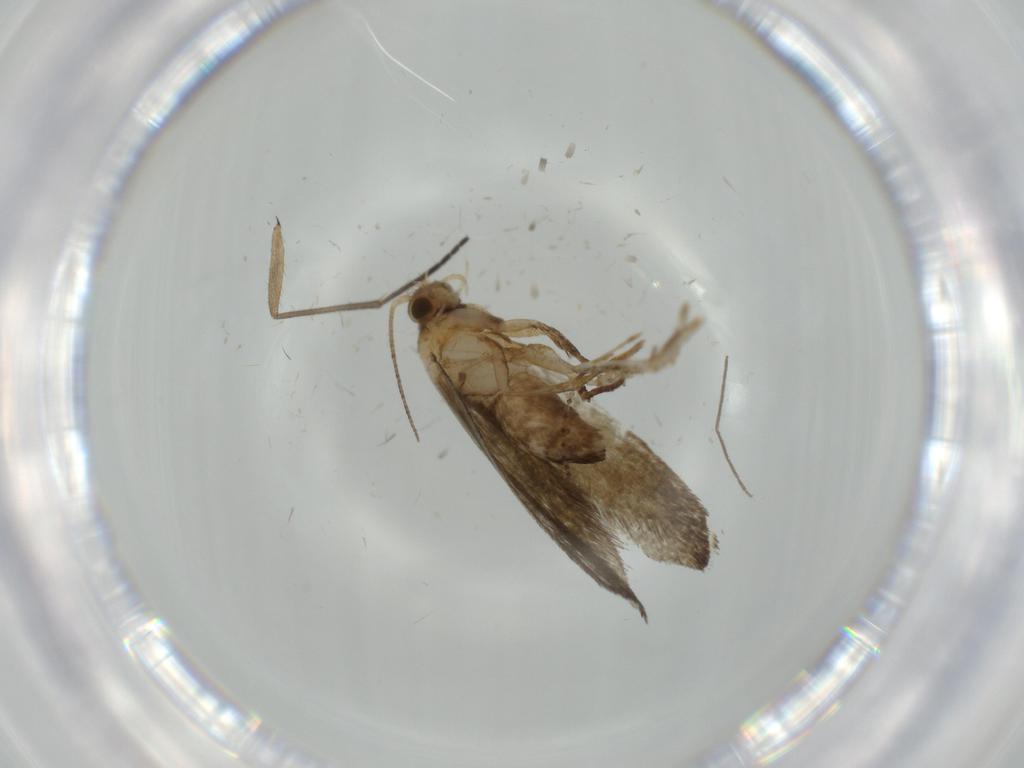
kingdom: Animalia
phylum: Arthropoda
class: Insecta
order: Lepidoptera
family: Tineidae
